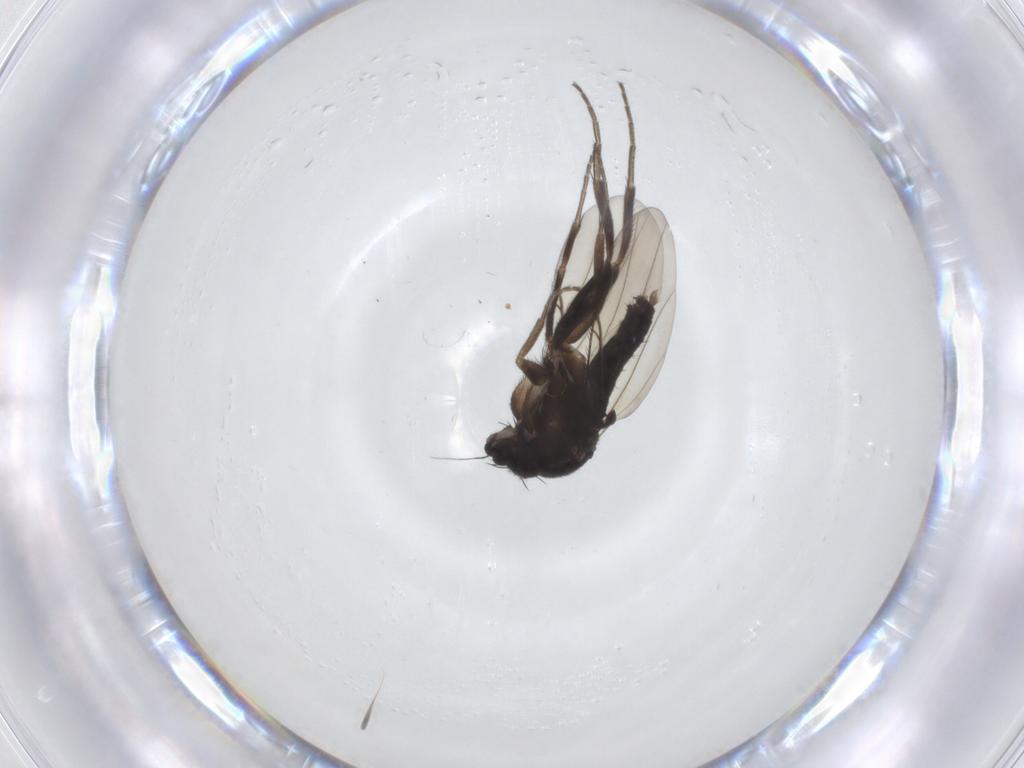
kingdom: Animalia
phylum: Arthropoda
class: Insecta
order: Diptera
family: Phoridae
